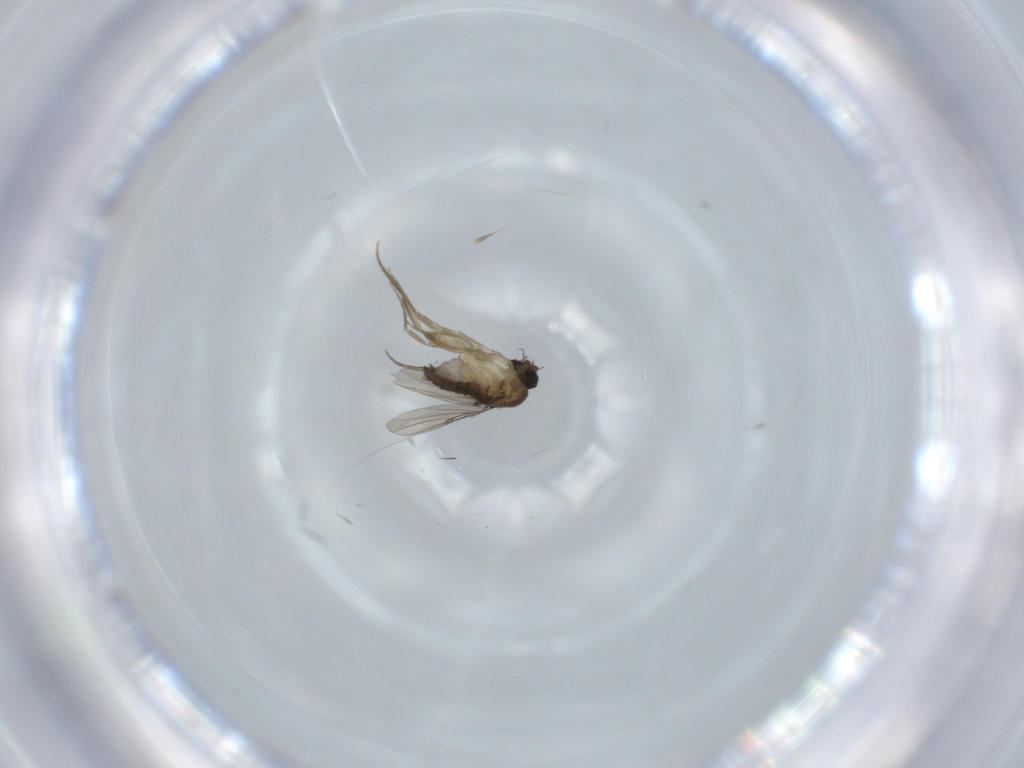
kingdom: Animalia
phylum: Arthropoda
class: Insecta
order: Diptera
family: Phoridae
